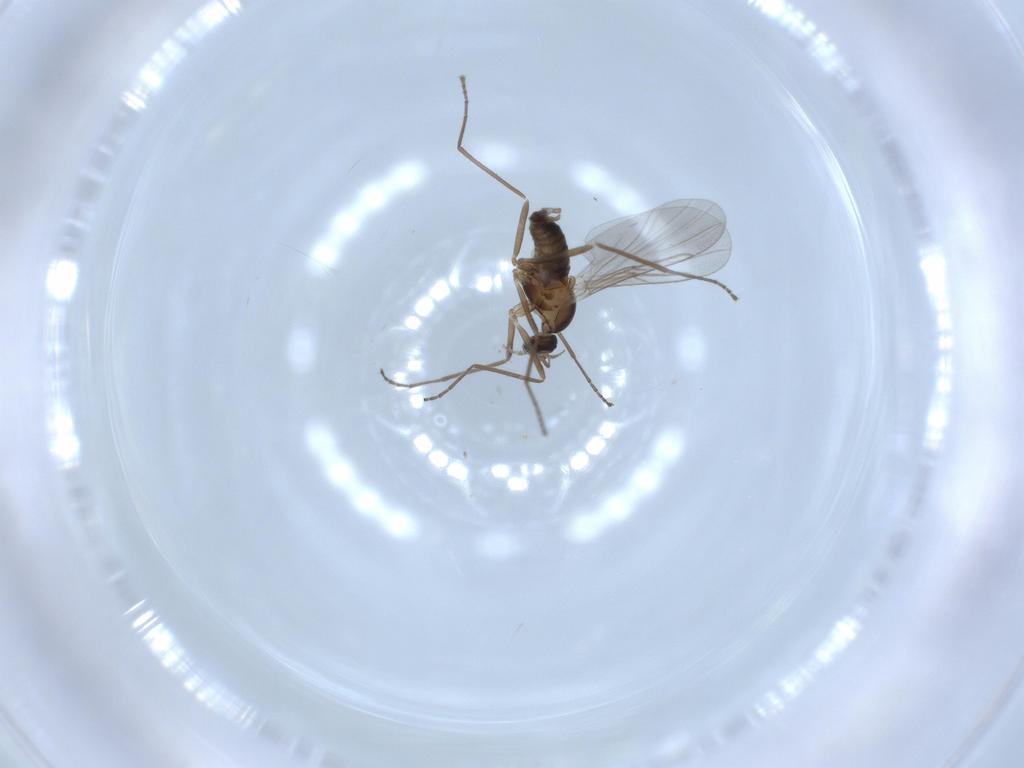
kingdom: Animalia
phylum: Arthropoda
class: Insecta
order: Diptera
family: Cecidomyiidae
